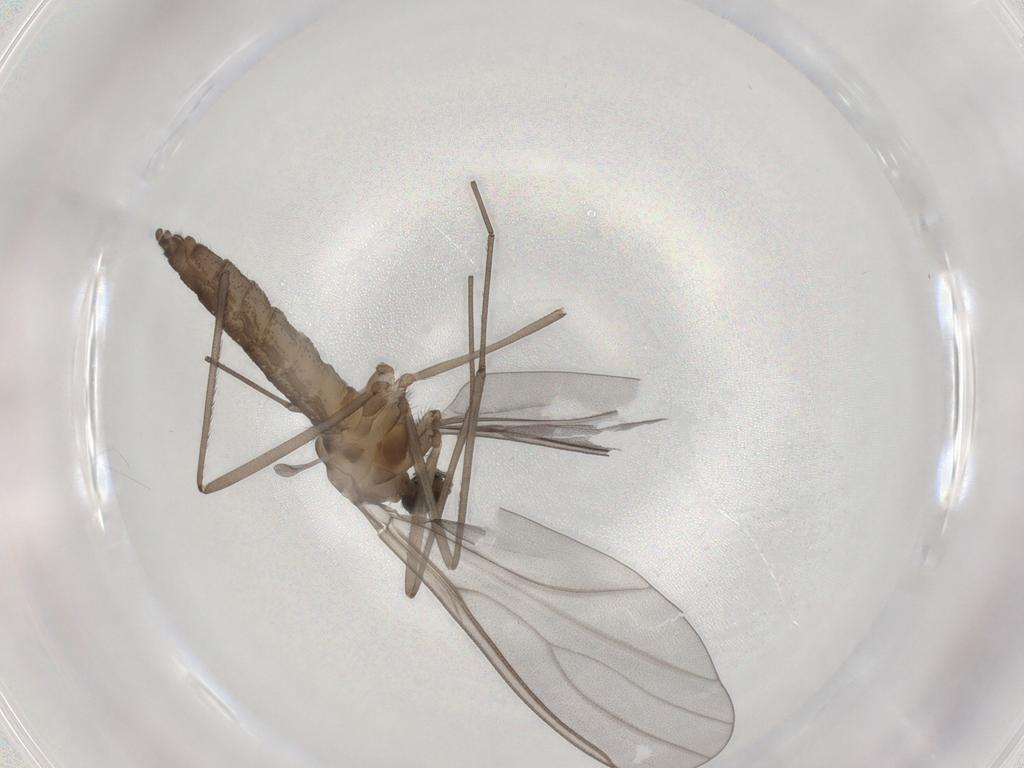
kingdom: Animalia
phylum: Arthropoda
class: Insecta
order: Diptera
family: Cecidomyiidae
